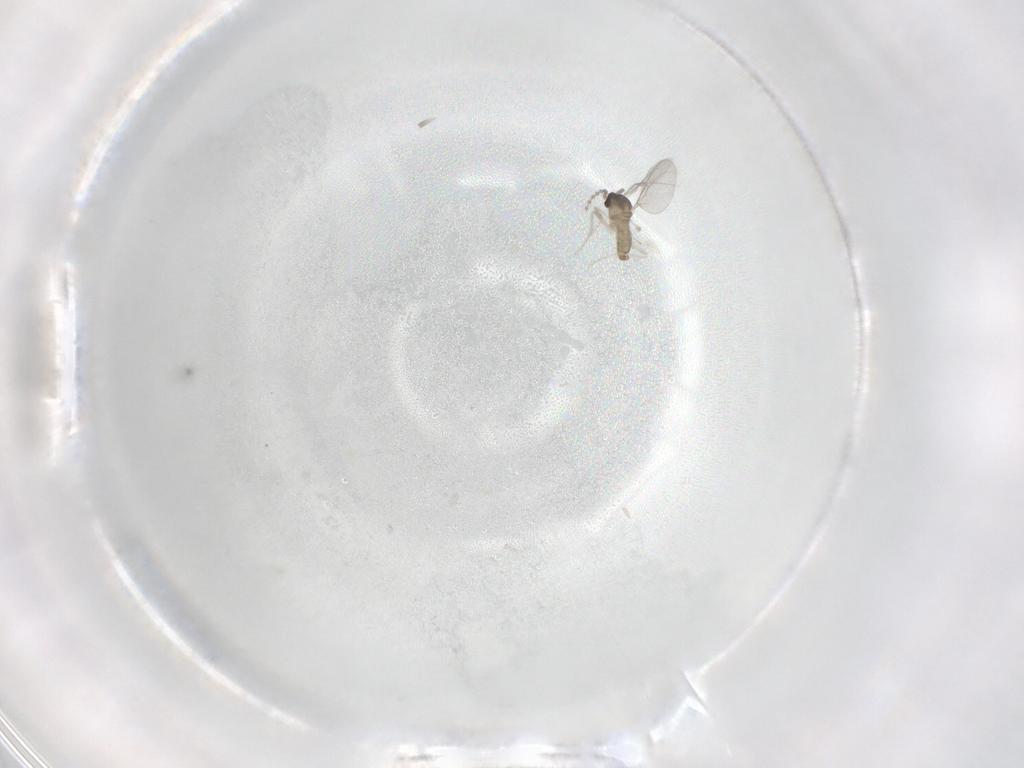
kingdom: Animalia
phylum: Arthropoda
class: Insecta
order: Diptera
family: Cecidomyiidae
